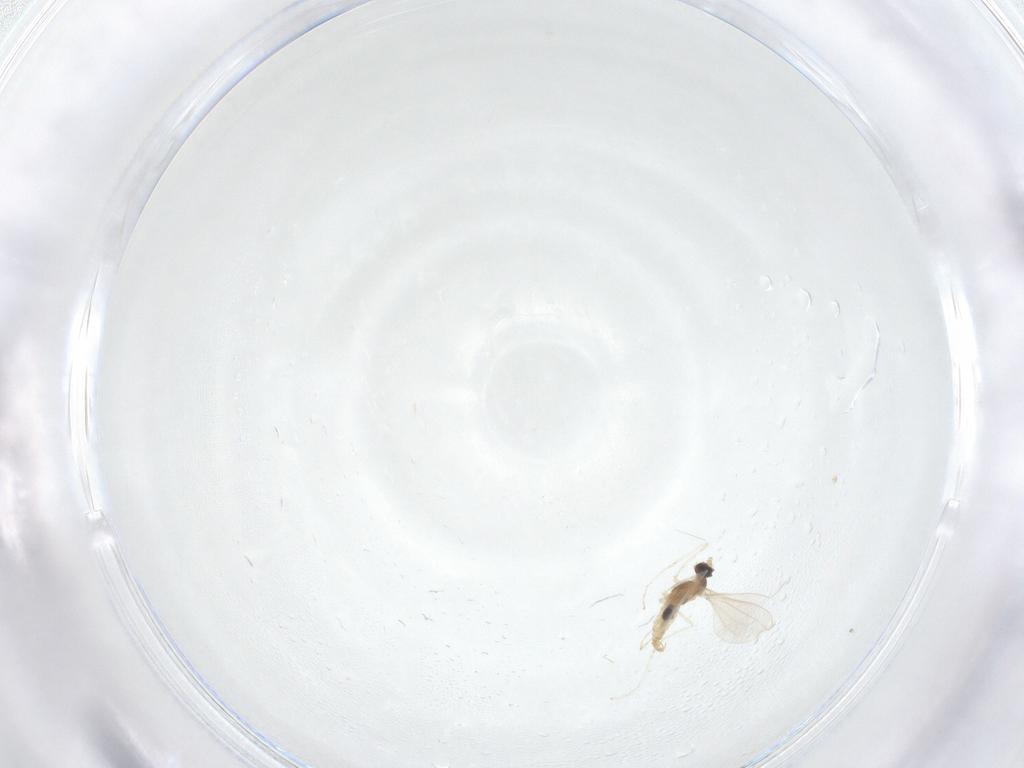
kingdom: Animalia
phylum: Arthropoda
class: Insecta
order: Diptera
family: Cecidomyiidae
